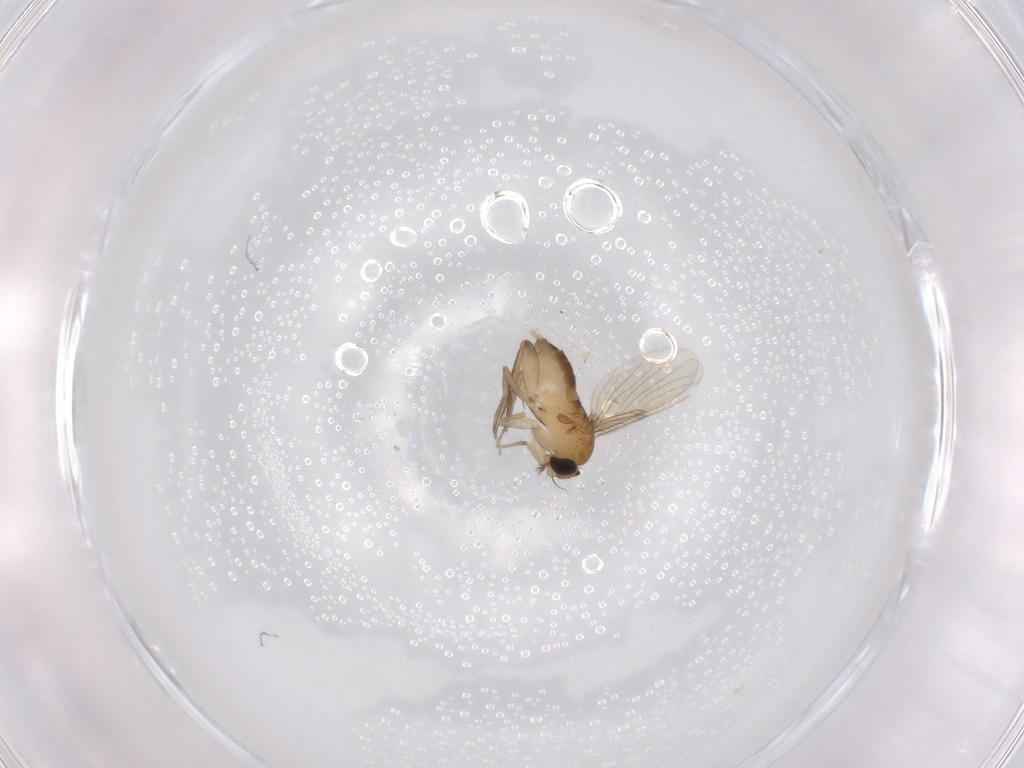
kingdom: Animalia
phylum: Arthropoda
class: Insecta
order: Diptera
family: Phoridae
